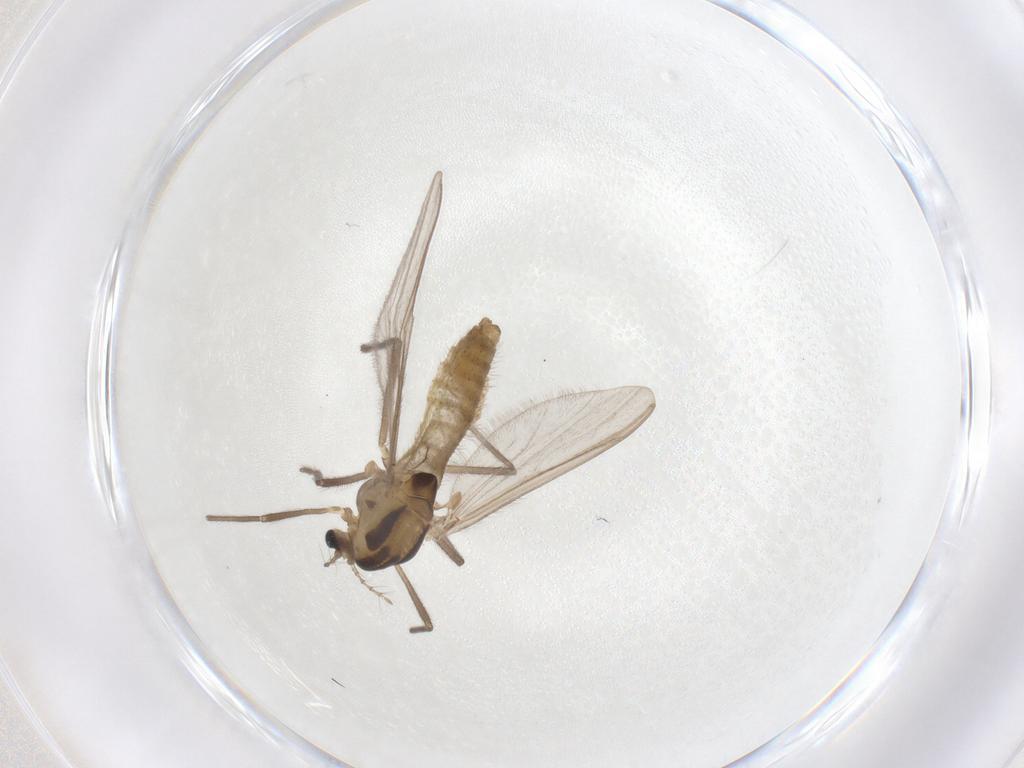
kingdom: Animalia
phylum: Arthropoda
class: Insecta
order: Diptera
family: Chironomidae
